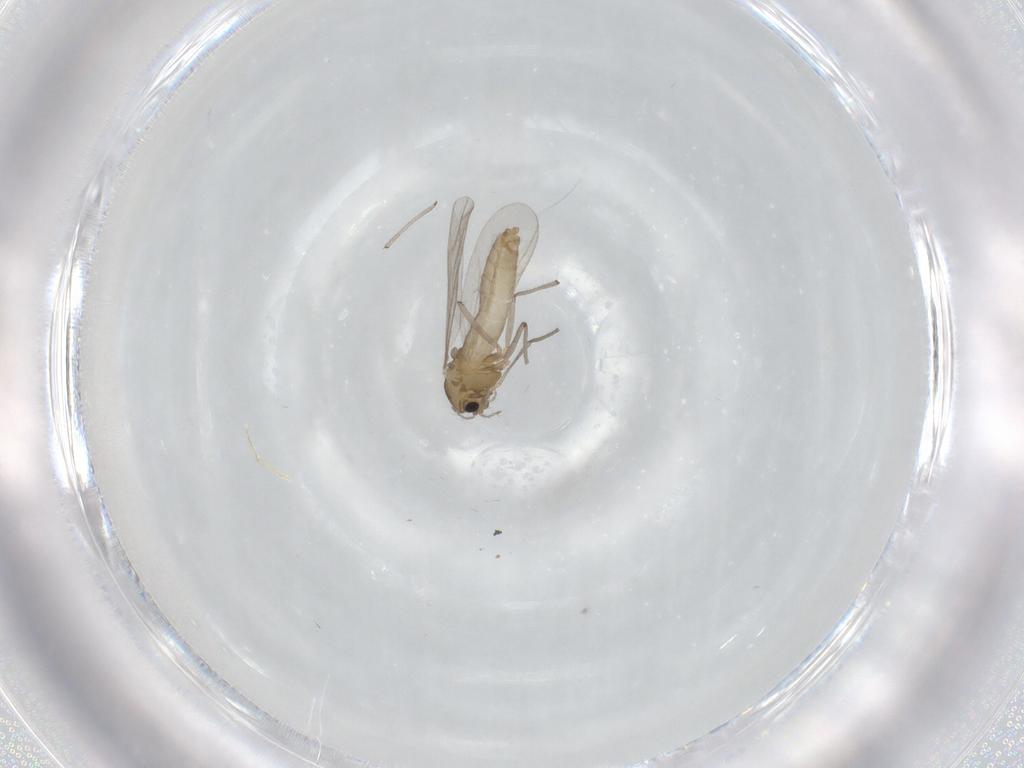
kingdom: Animalia
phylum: Arthropoda
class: Insecta
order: Diptera
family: Chironomidae
